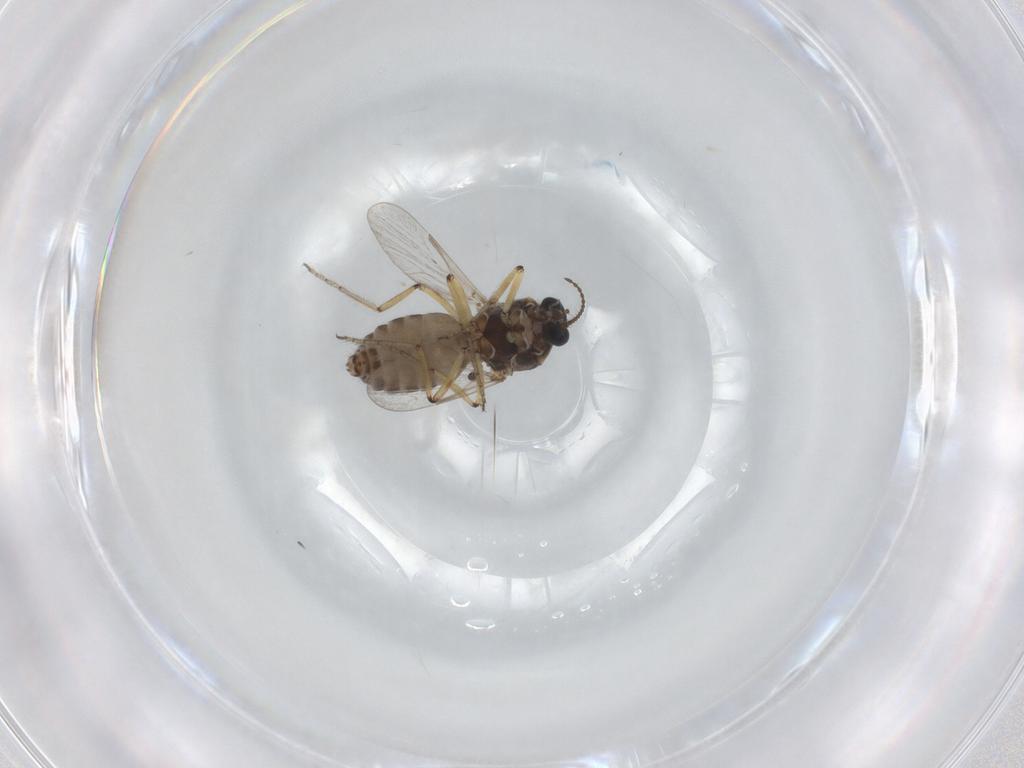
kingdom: Animalia
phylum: Arthropoda
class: Insecta
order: Diptera
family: Ceratopogonidae
